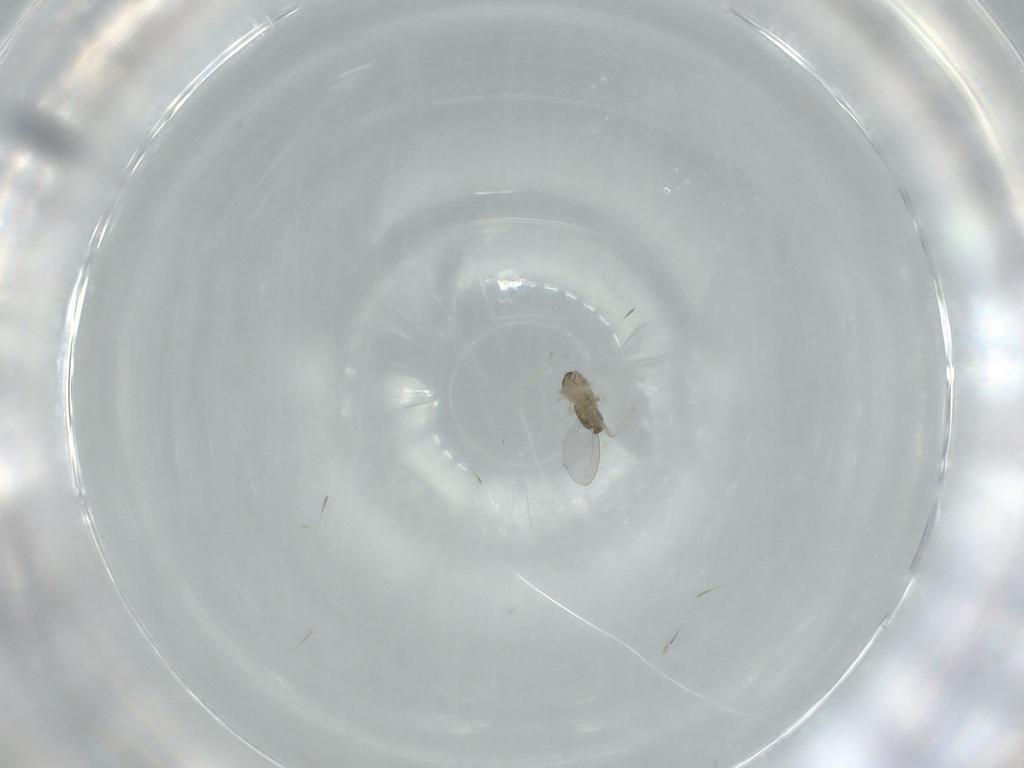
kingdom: Animalia
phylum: Arthropoda
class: Insecta
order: Diptera
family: Cecidomyiidae
